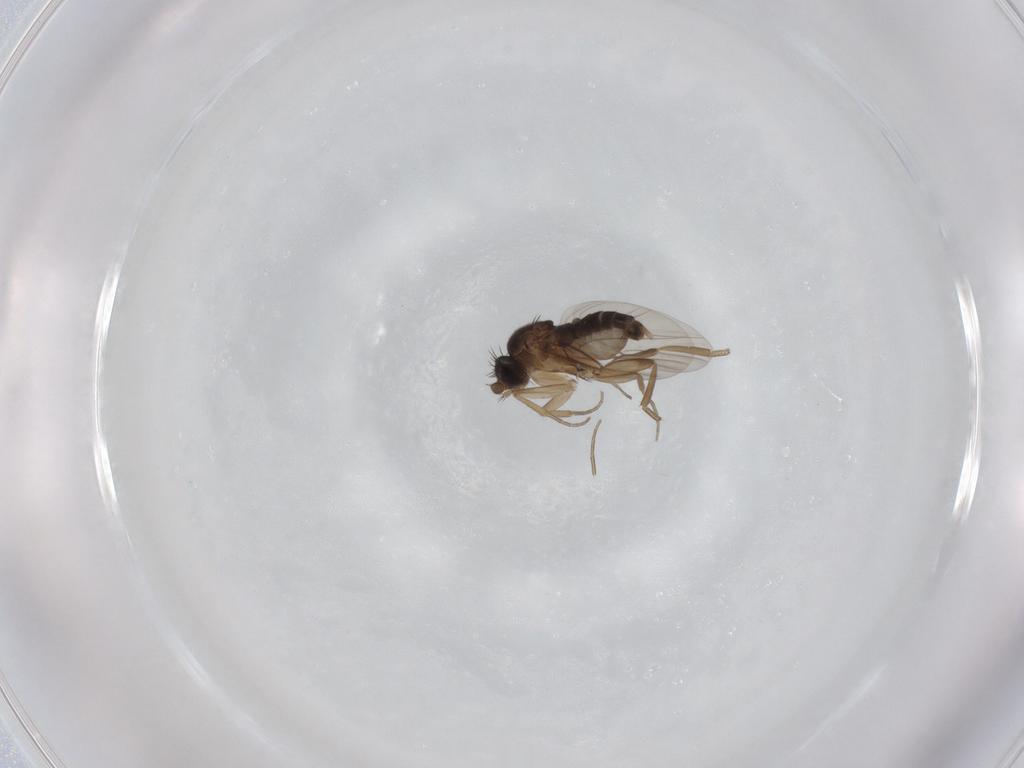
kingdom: Animalia
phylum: Arthropoda
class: Insecta
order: Diptera
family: Phoridae
